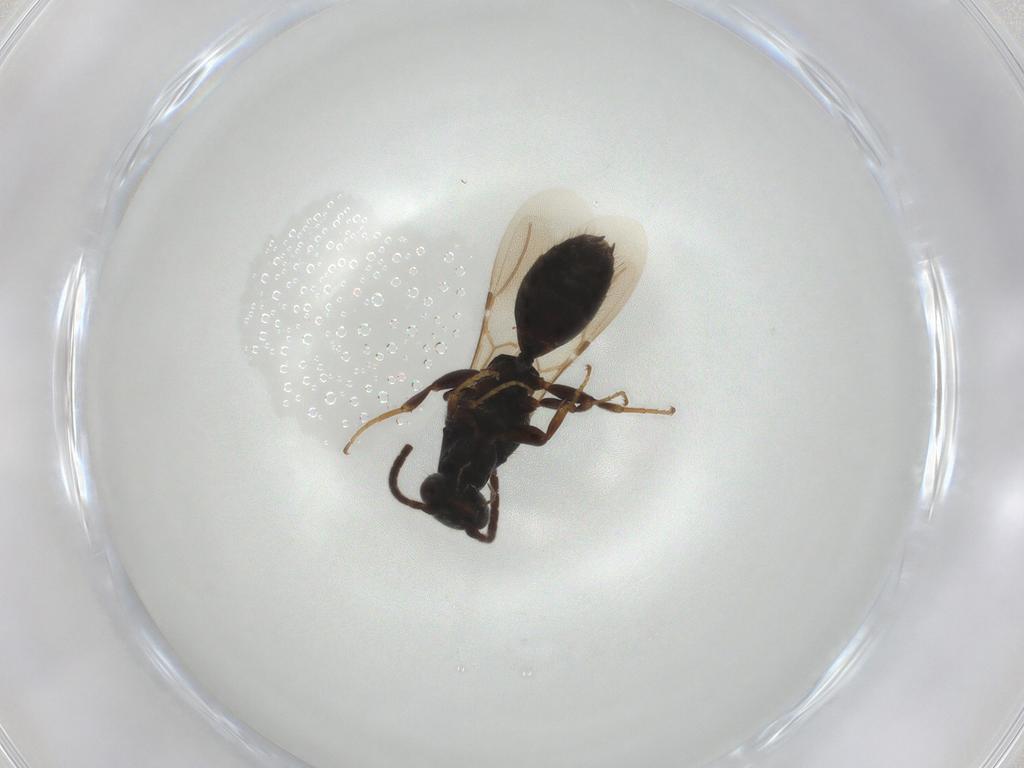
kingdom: Animalia
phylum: Arthropoda
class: Insecta
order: Hymenoptera
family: Bethylidae
